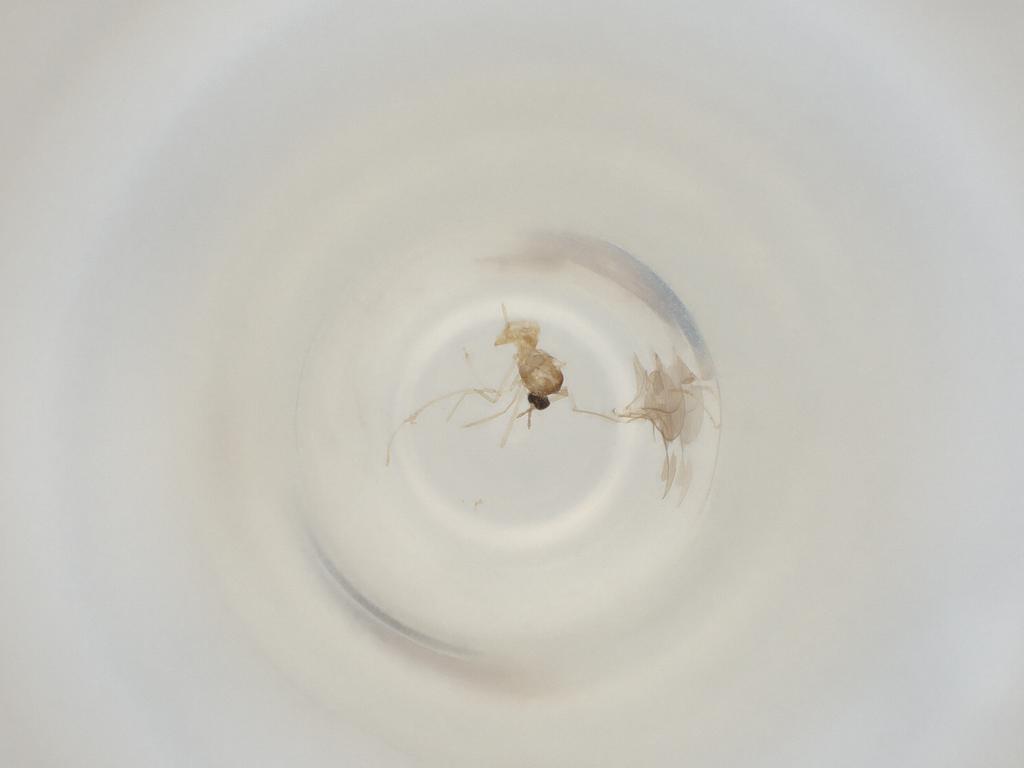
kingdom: Animalia
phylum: Arthropoda
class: Insecta
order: Diptera
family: Cecidomyiidae
